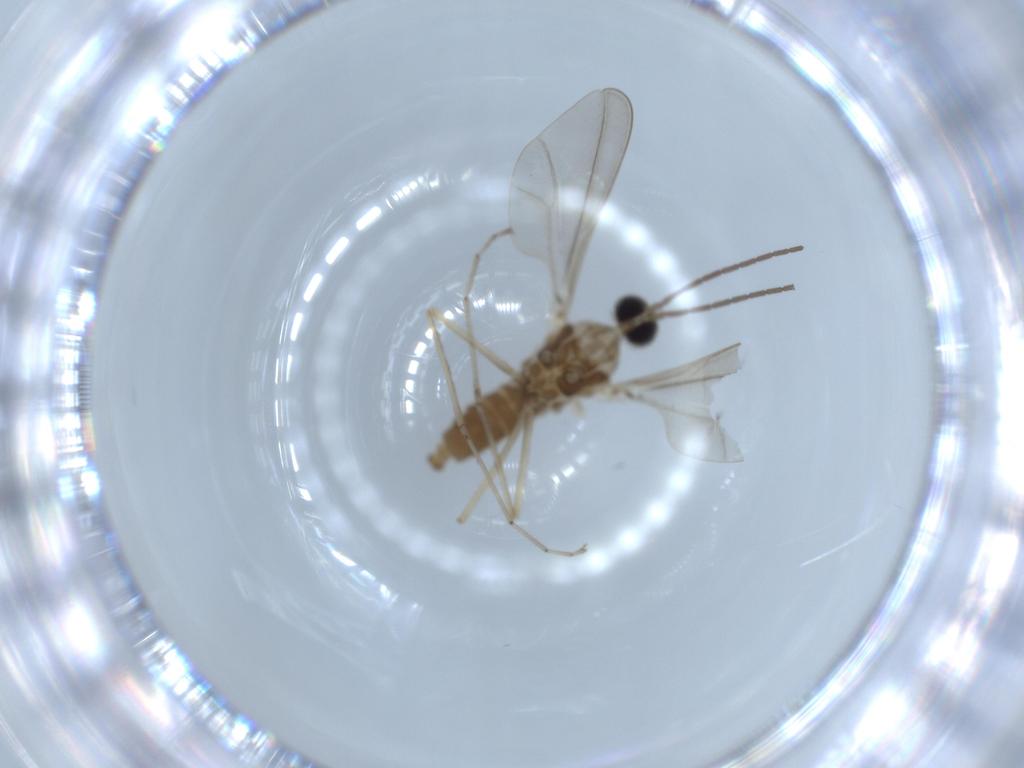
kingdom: Animalia
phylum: Arthropoda
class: Insecta
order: Diptera
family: Cecidomyiidae
